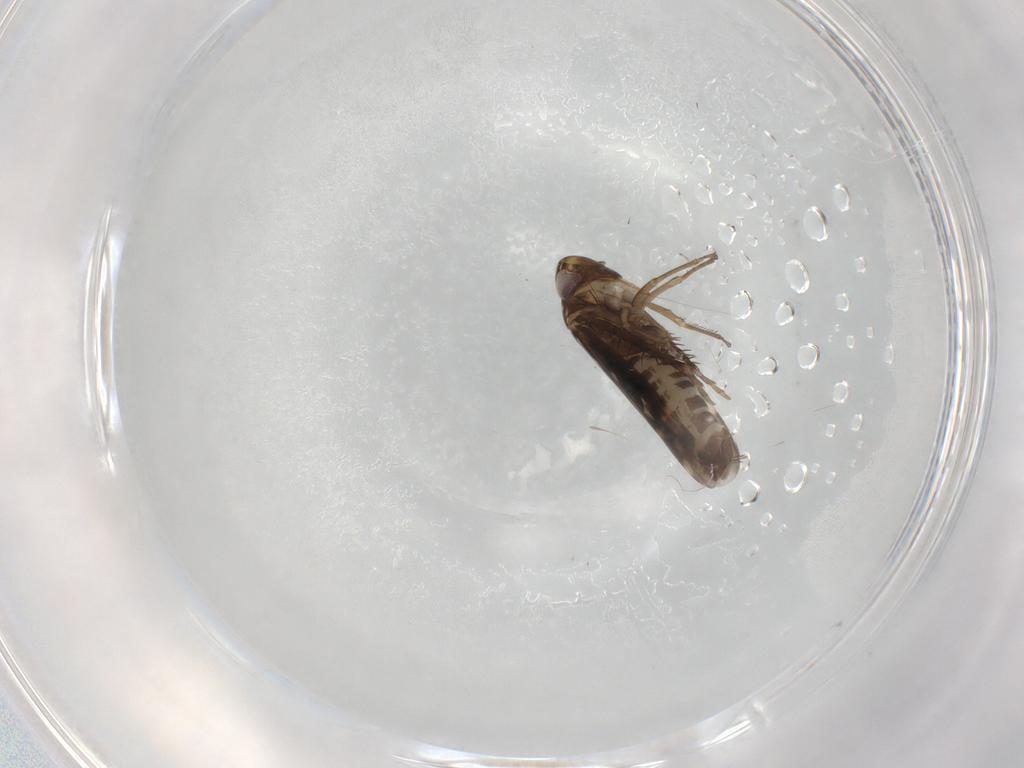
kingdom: Animalia
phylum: Arthropoda
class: Insecta
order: Hemiptera
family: Cicadellidae
